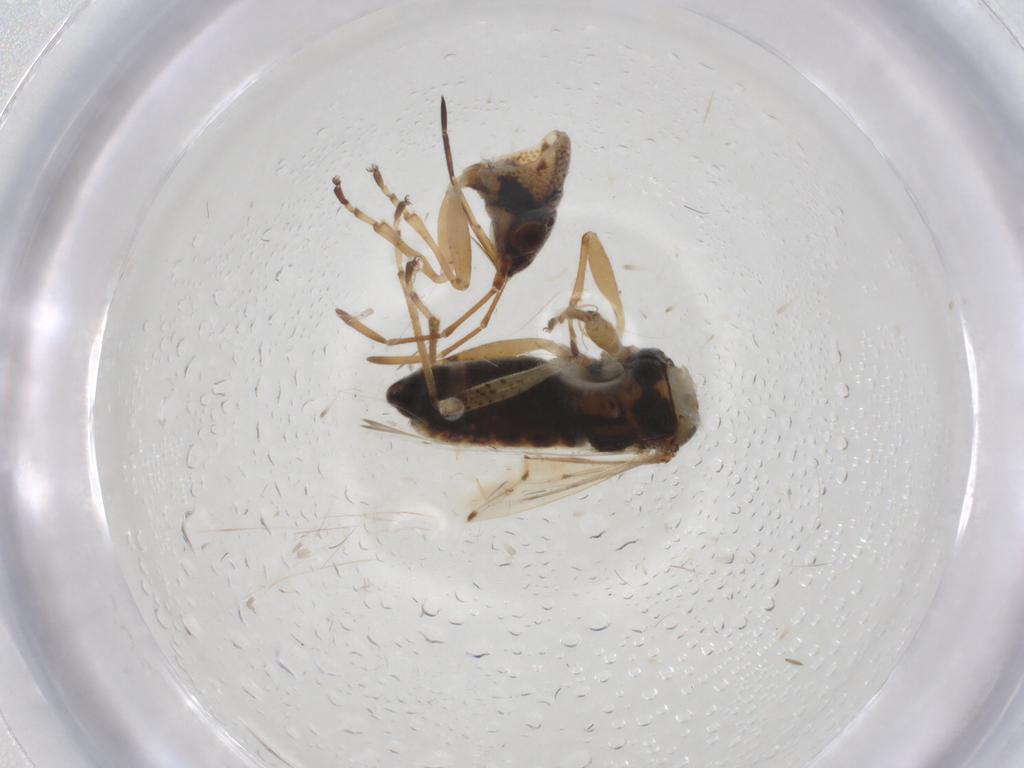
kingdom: Animalia
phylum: Arthropoda
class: Insecta
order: Hemiptera
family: Lygaeidae
